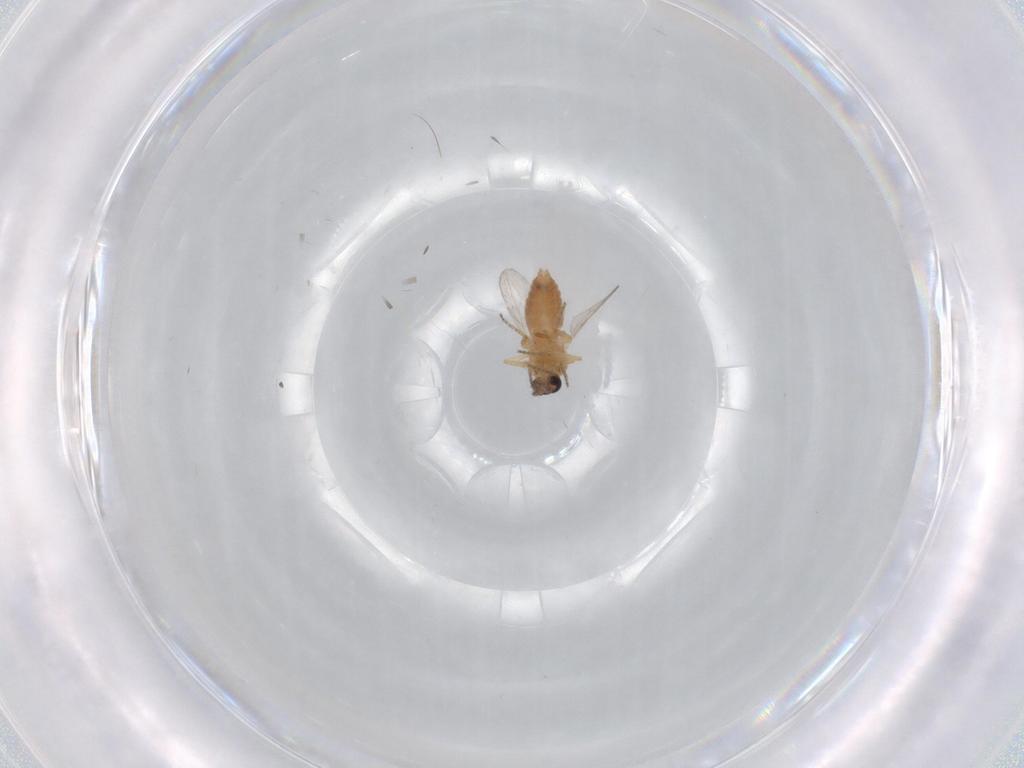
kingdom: Animalia
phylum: Arthropoda
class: Insecta
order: Diptera
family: Ceratopogonidae
